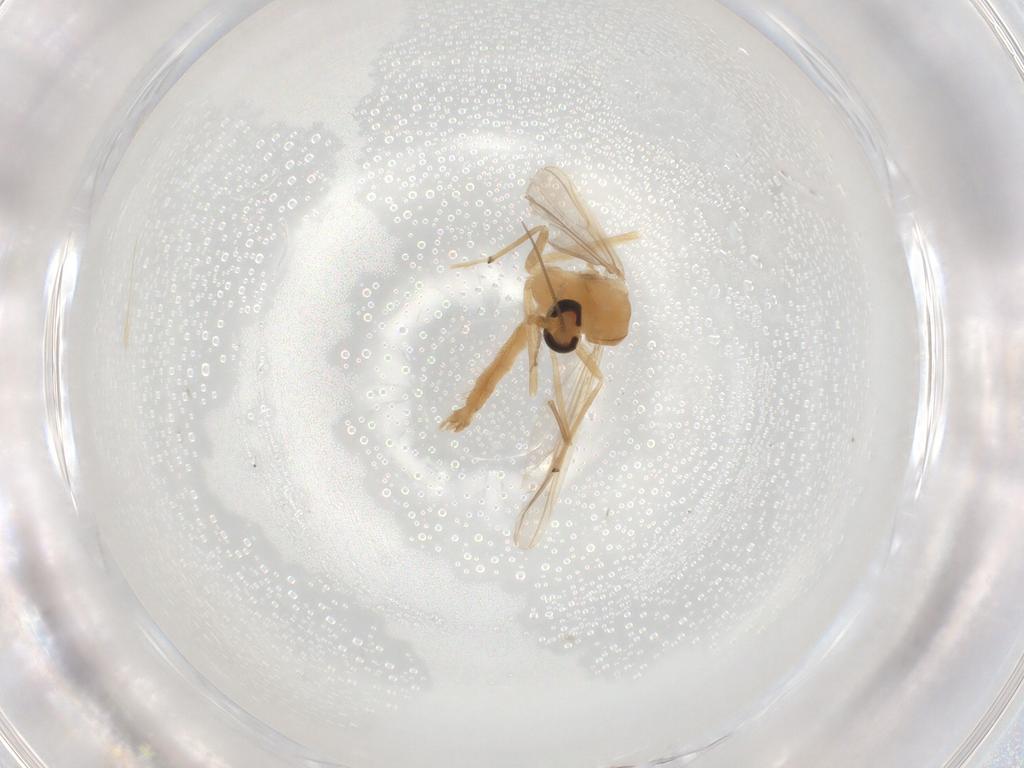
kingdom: Animalia
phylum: Arthropoda
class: Insecta
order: Diptera
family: Chironomidae
